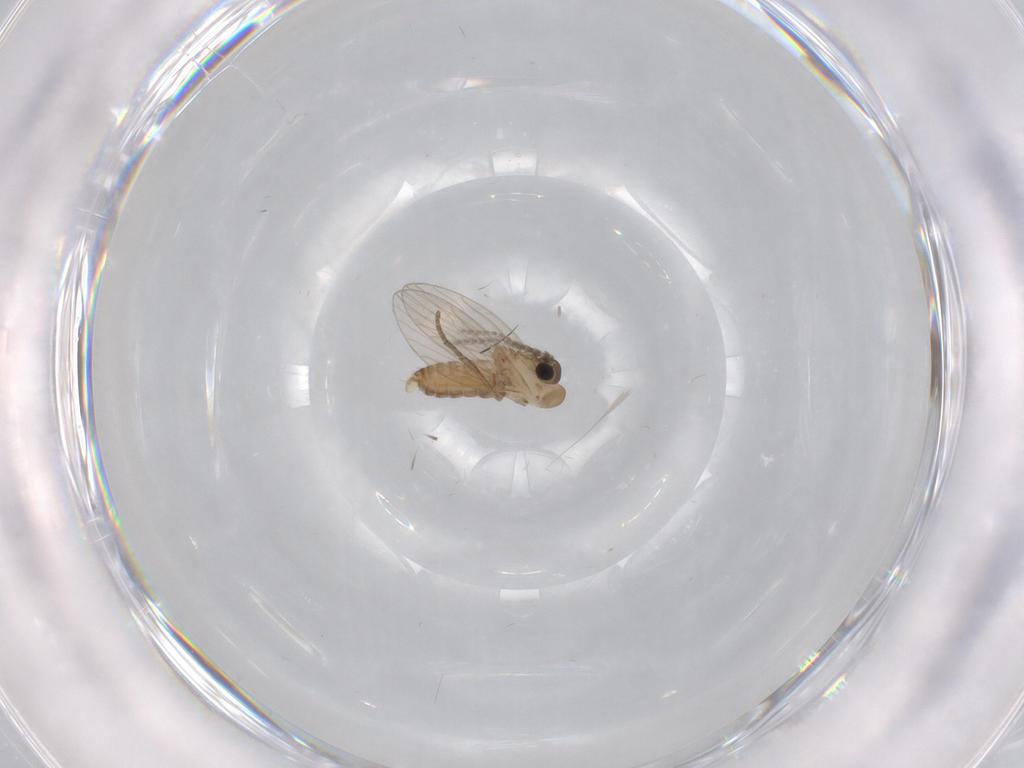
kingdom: Animalia
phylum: Arthropoda
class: Insecta
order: Diptera
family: Psychodidae
